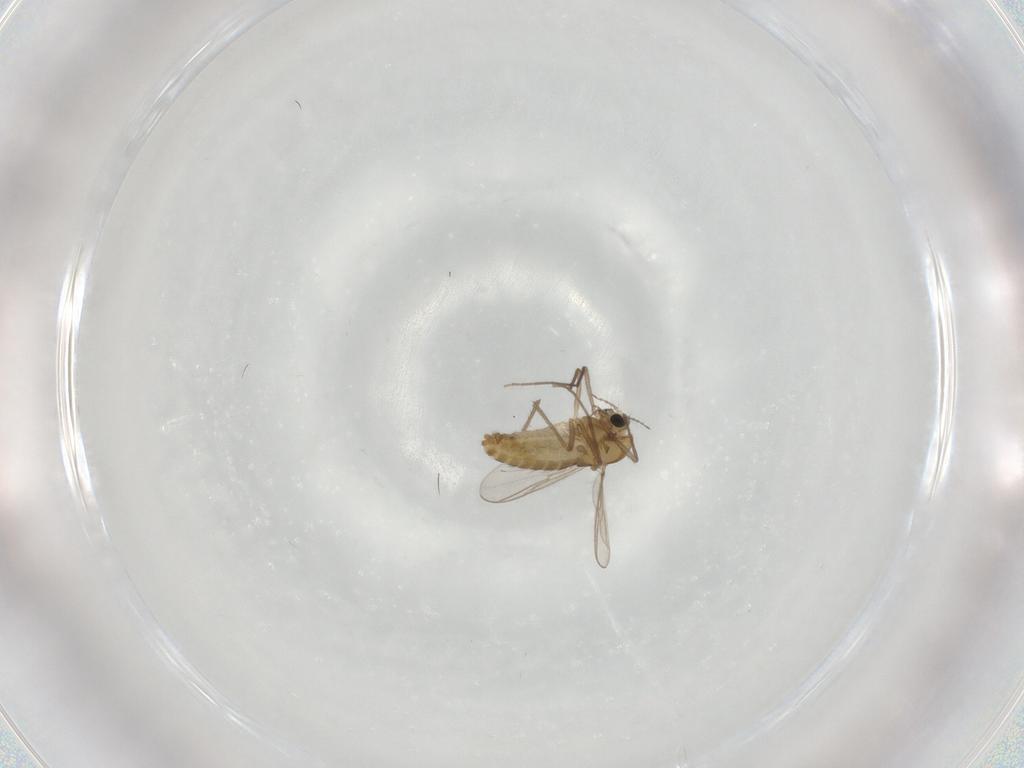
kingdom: Animalia
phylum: Arthropoda
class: Insecta
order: Diptera
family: Chironomidae
